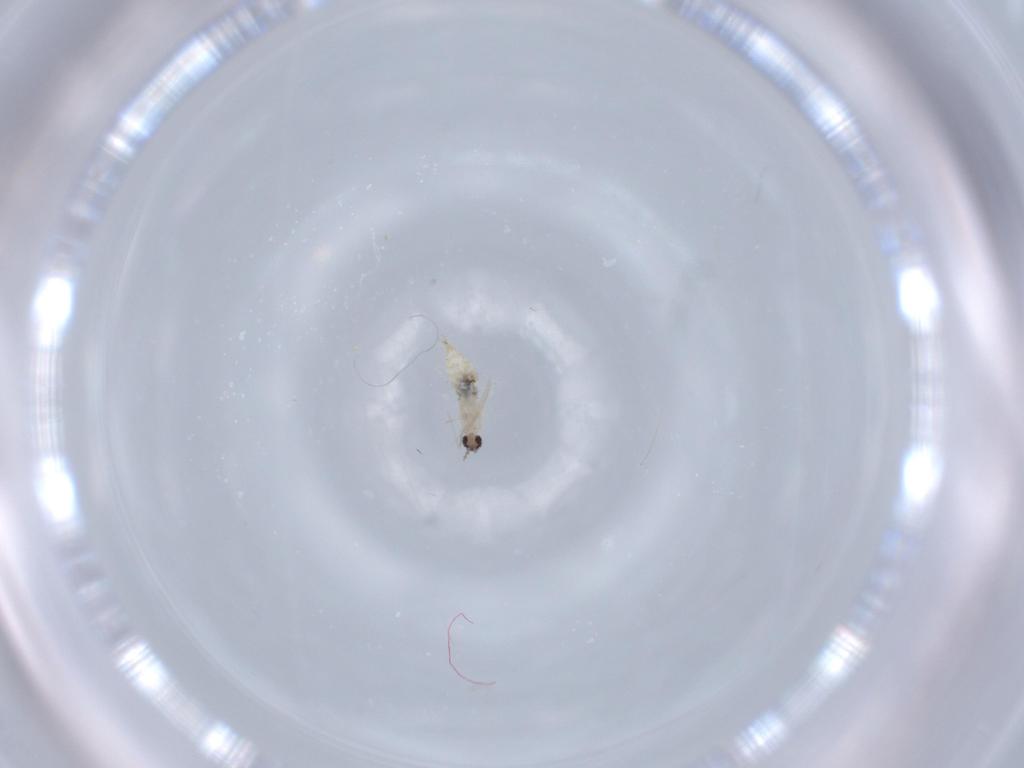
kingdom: Animalia
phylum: Arthropoda
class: Insecta
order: Diptera
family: Cecidomyiidae
